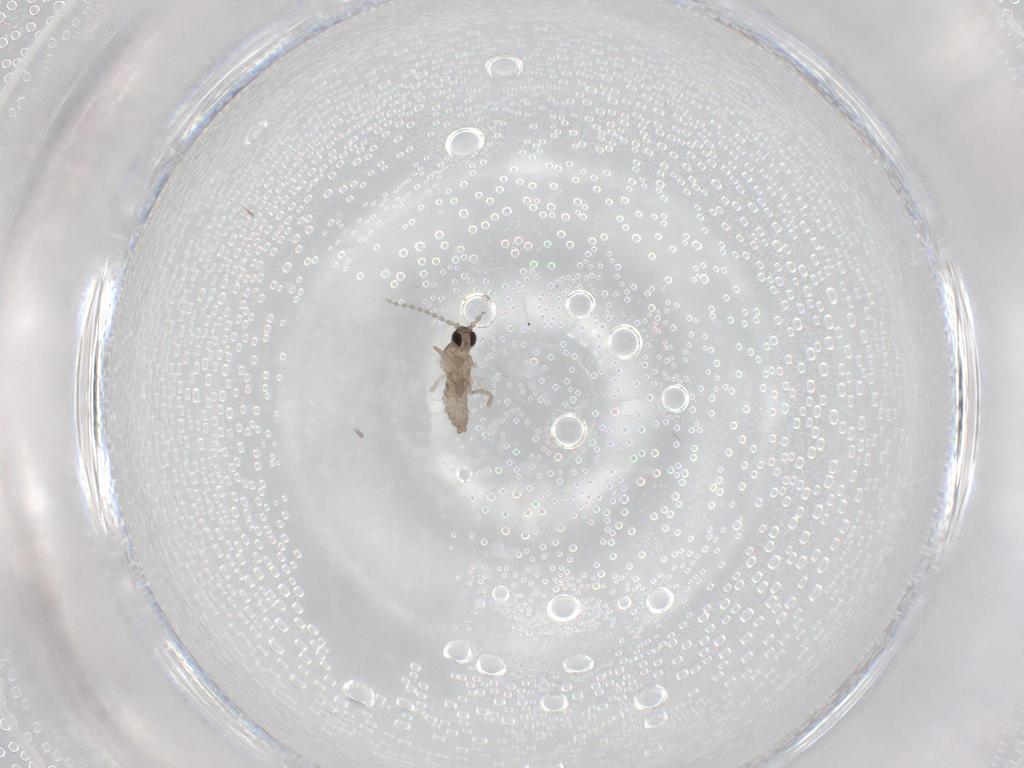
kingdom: Animalia
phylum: Arthropoda
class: Insecta
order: Diptera
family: Cecidomyiidae
